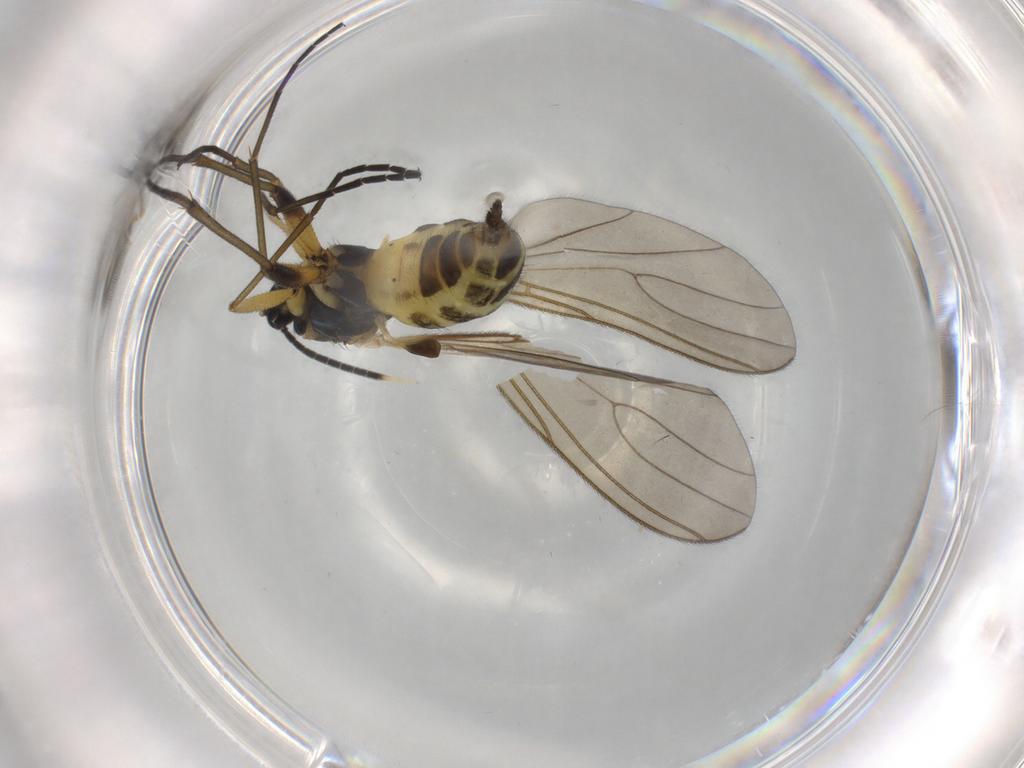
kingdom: Animalia
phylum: Arthropoda
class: Insecta
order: Diptera
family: Sciaridae
